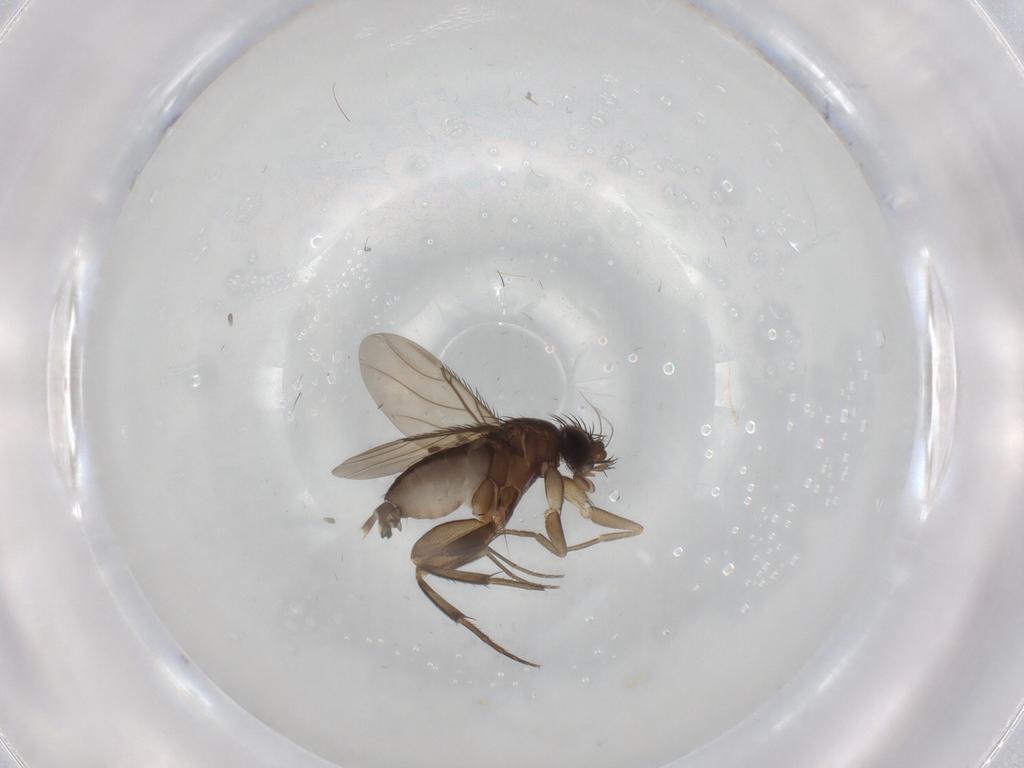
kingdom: Animalia
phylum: Arthropoda
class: Insecta
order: Diptera
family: Phoridae
